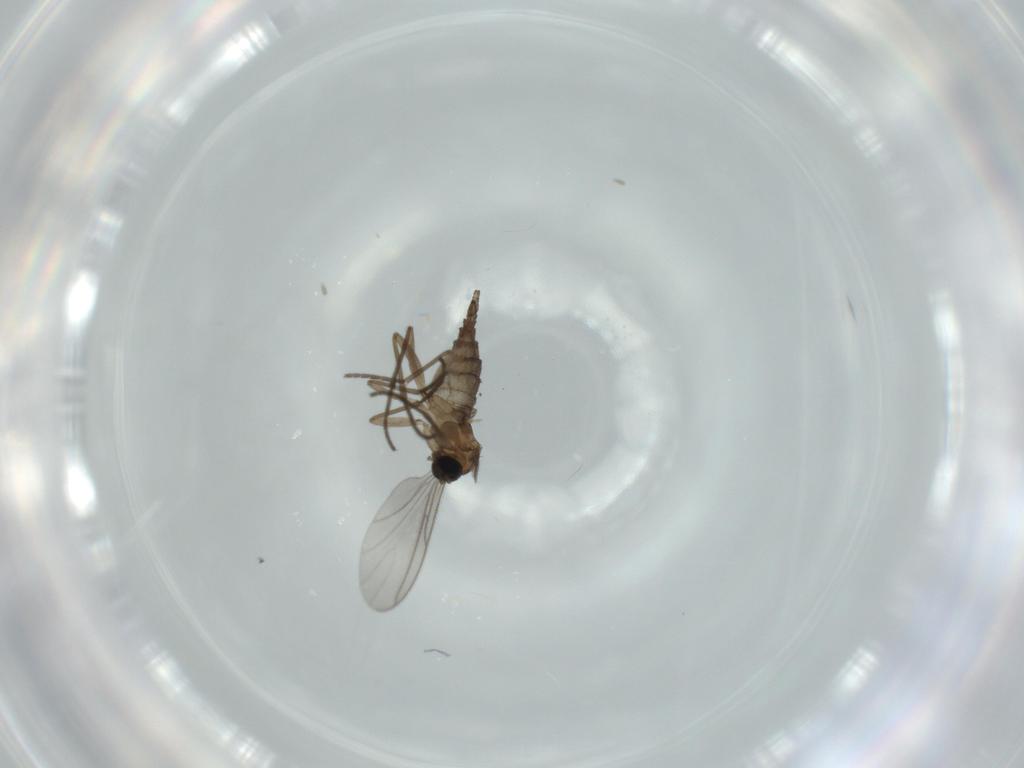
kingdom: Animalia
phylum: Arthropoda
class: Insecta
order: Diptera
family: Sciaridae
